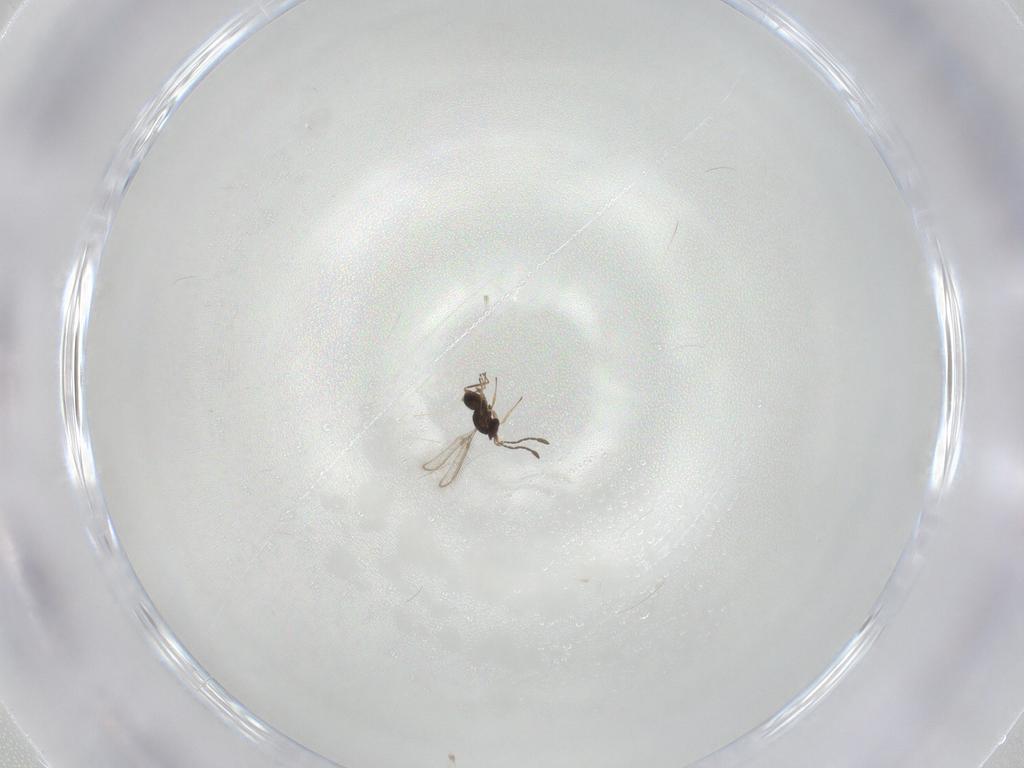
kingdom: Animalia
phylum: Arthropoda
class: Insecta
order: Hymenoptera
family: Mymaridae
